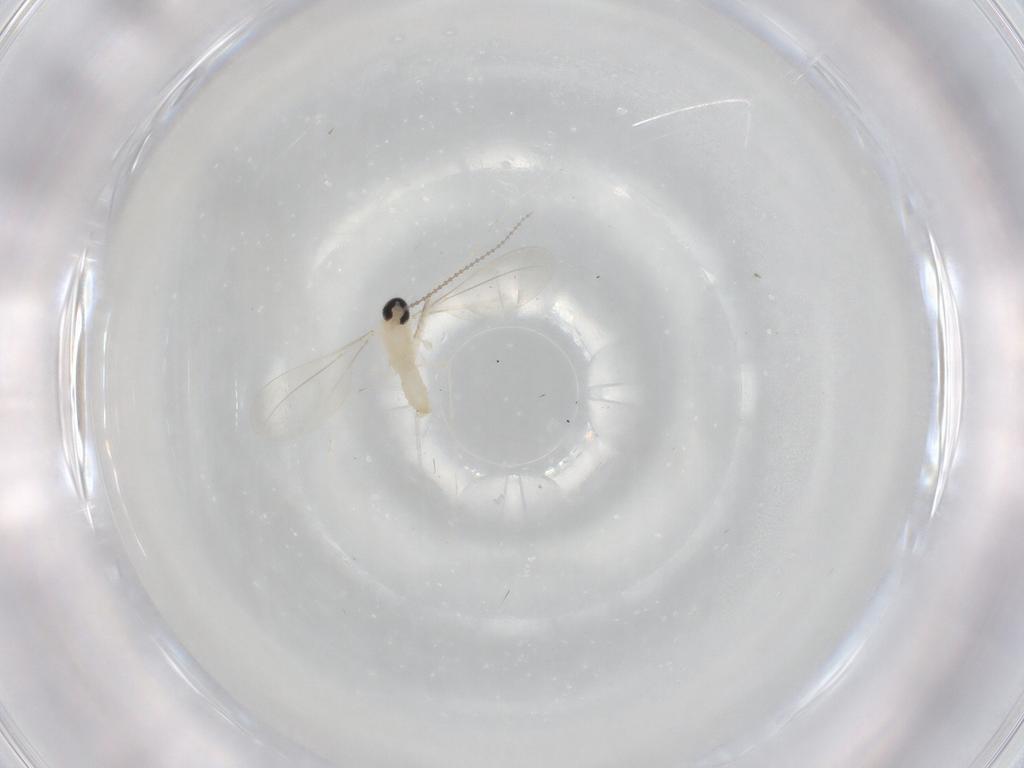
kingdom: Animalia
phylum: Arthropoda
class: Insecta
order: Diptera
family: Cecidomyiidae
